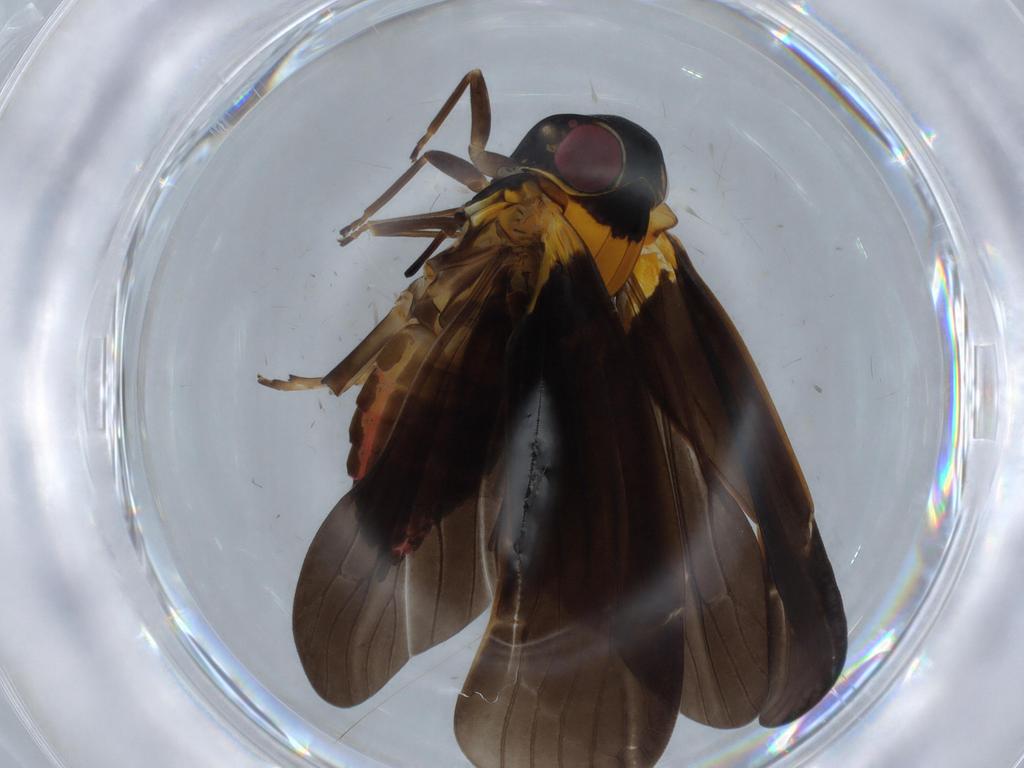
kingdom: Animalia
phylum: Arthropoda
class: Insecta
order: Hemiptera
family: Achilidae
